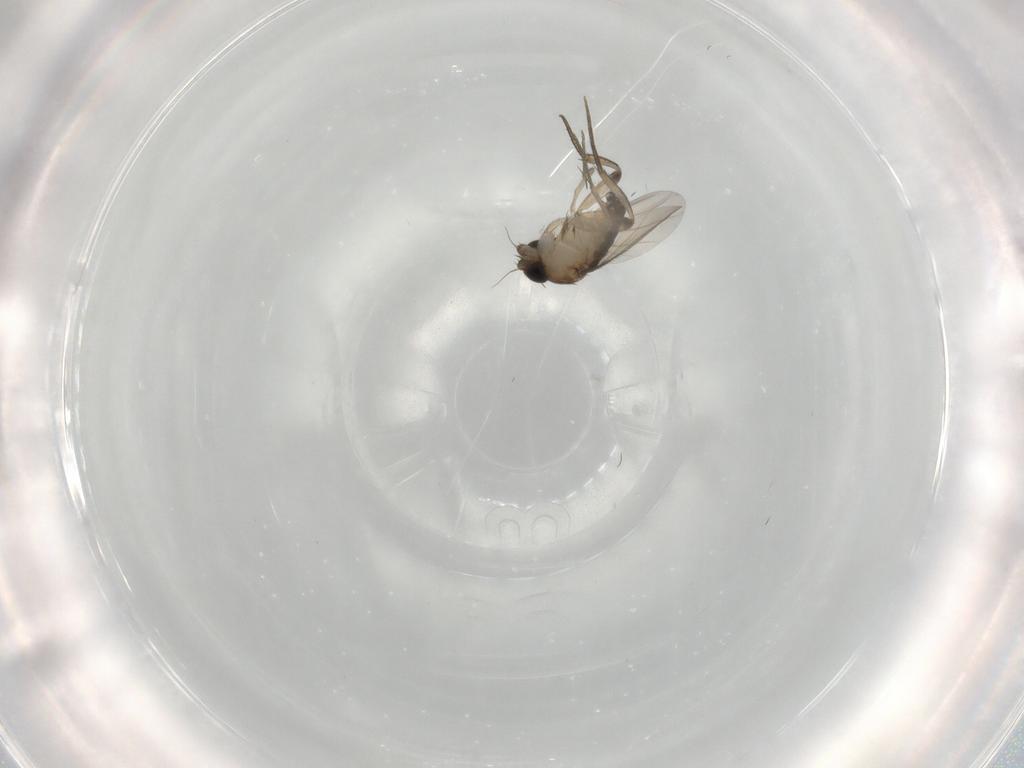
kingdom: Animalia
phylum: Arthropoda
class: Insecta
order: Diptera
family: Phoridae
